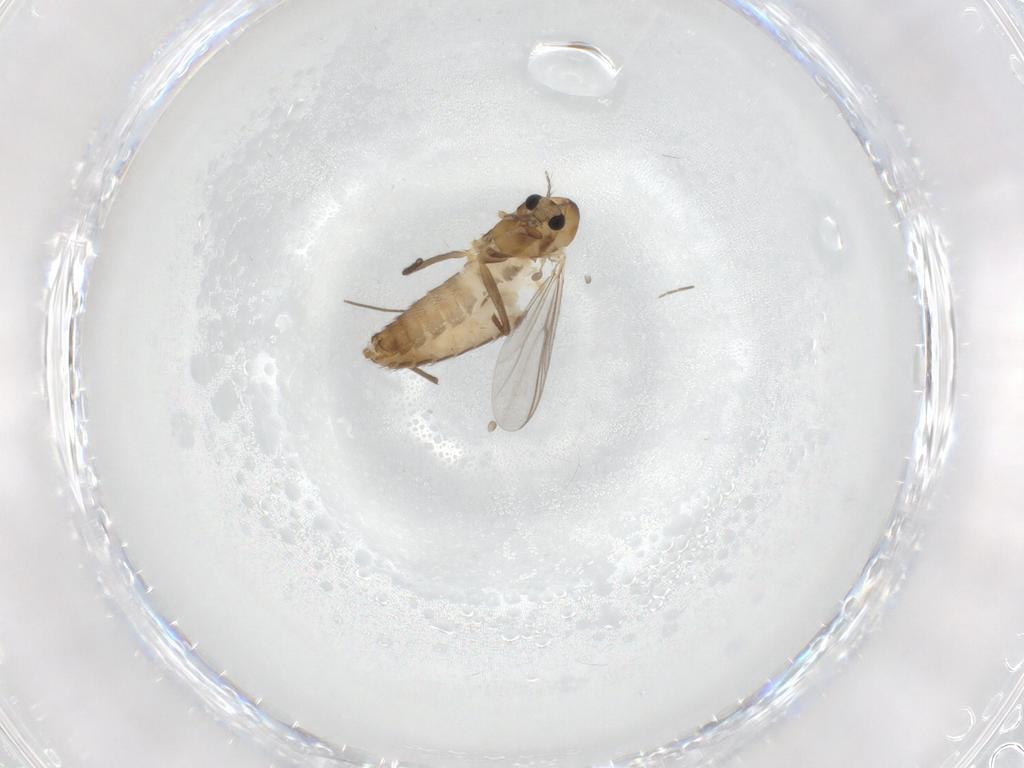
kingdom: Animalia
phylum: Arthropoda
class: Insecta
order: Diptera
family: Chironomidae
